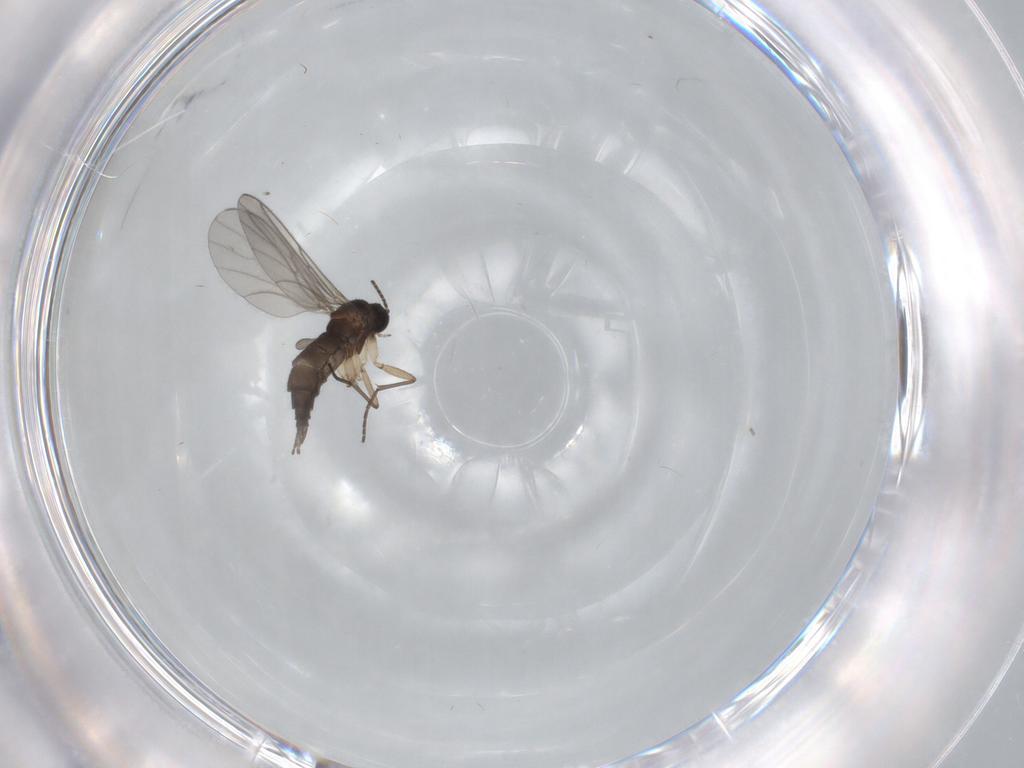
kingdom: Animalia
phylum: Arthropoda
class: Insecta
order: Diptera
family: Sciaridae
